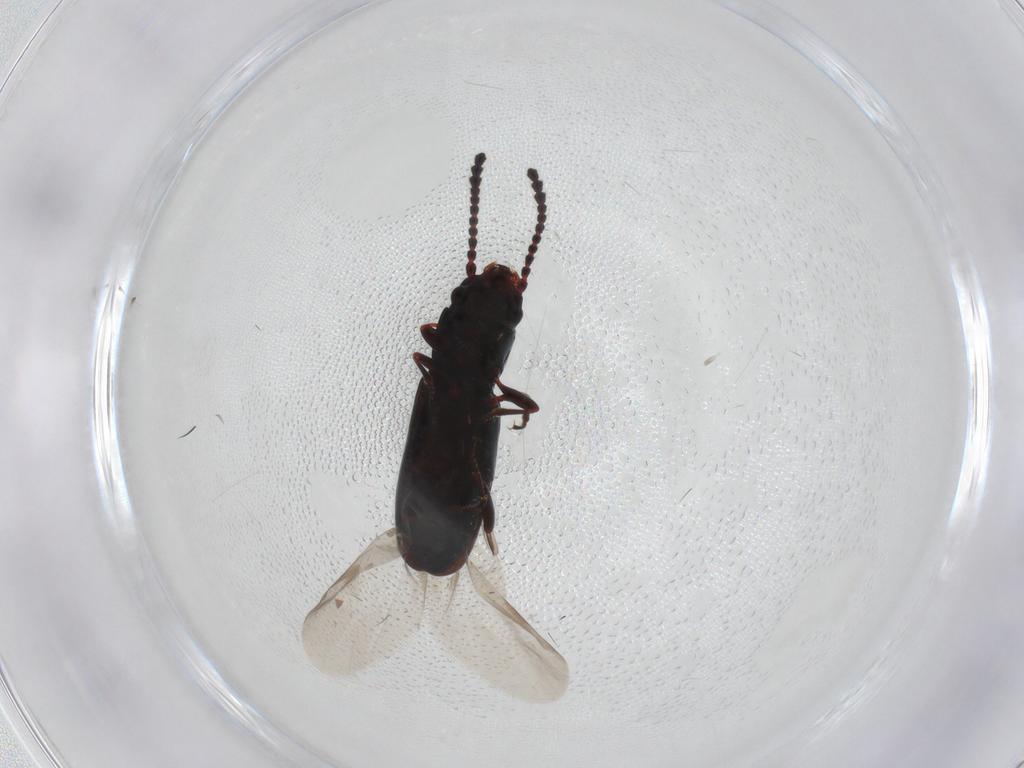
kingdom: Animalia
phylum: Arthropoda
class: Insecta
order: Coleoptera
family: Laemophloeidae
